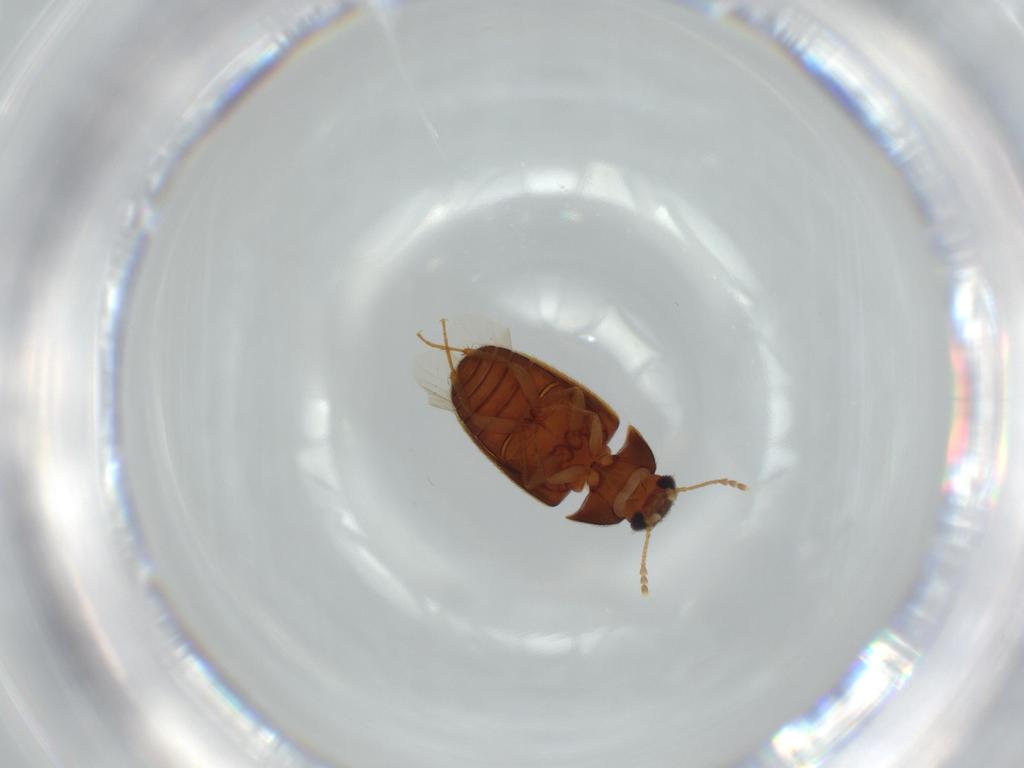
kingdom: Animalia
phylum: Arthropoda
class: Insecta
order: Coleoptera
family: Mycetophagidae
